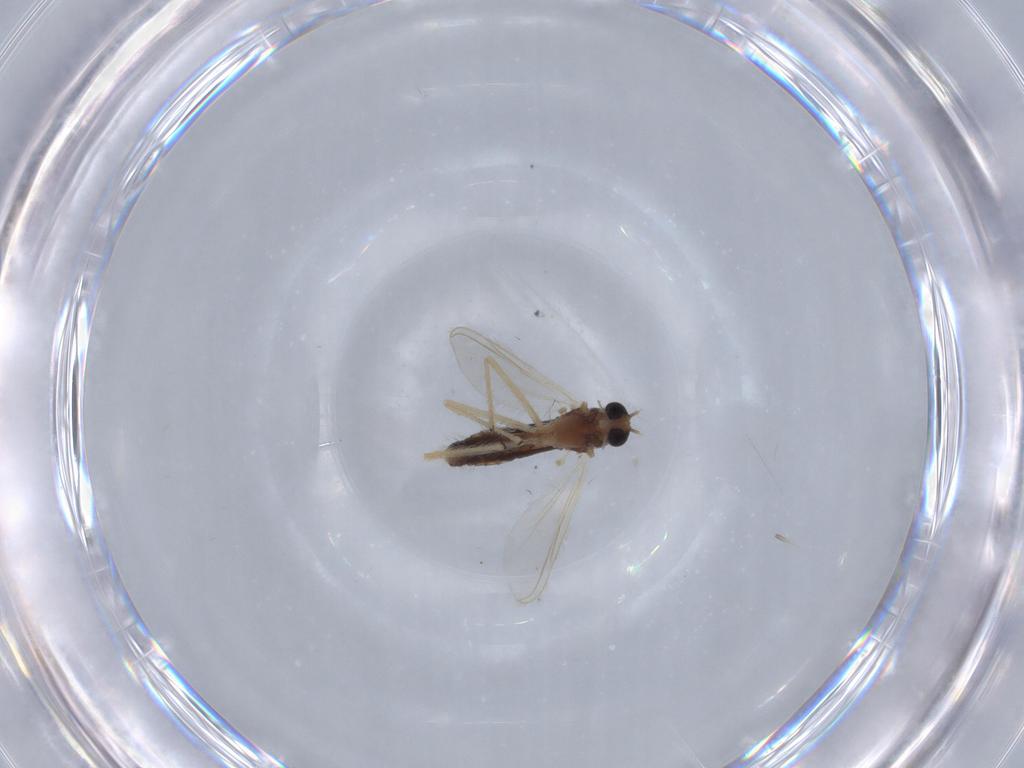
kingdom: Animalia
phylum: Arthropoda
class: Insecta
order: Diptera
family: Chironomidae
